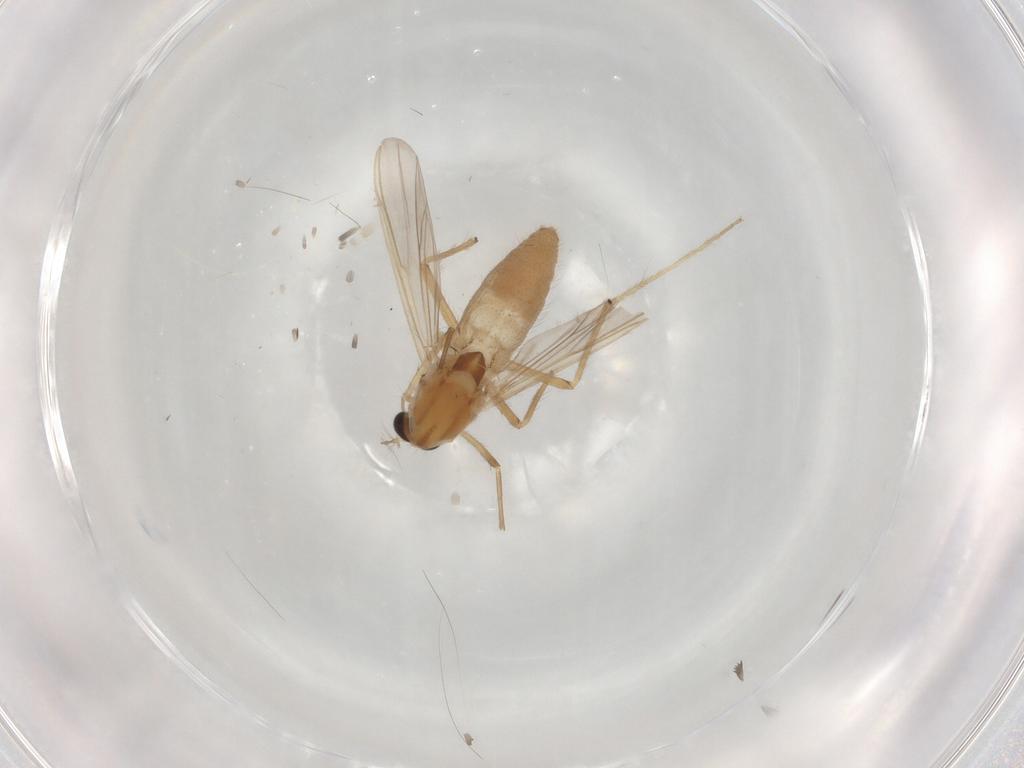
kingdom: Animalia
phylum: Arthropoda
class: Insecta
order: Diptera
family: Chironomidae
